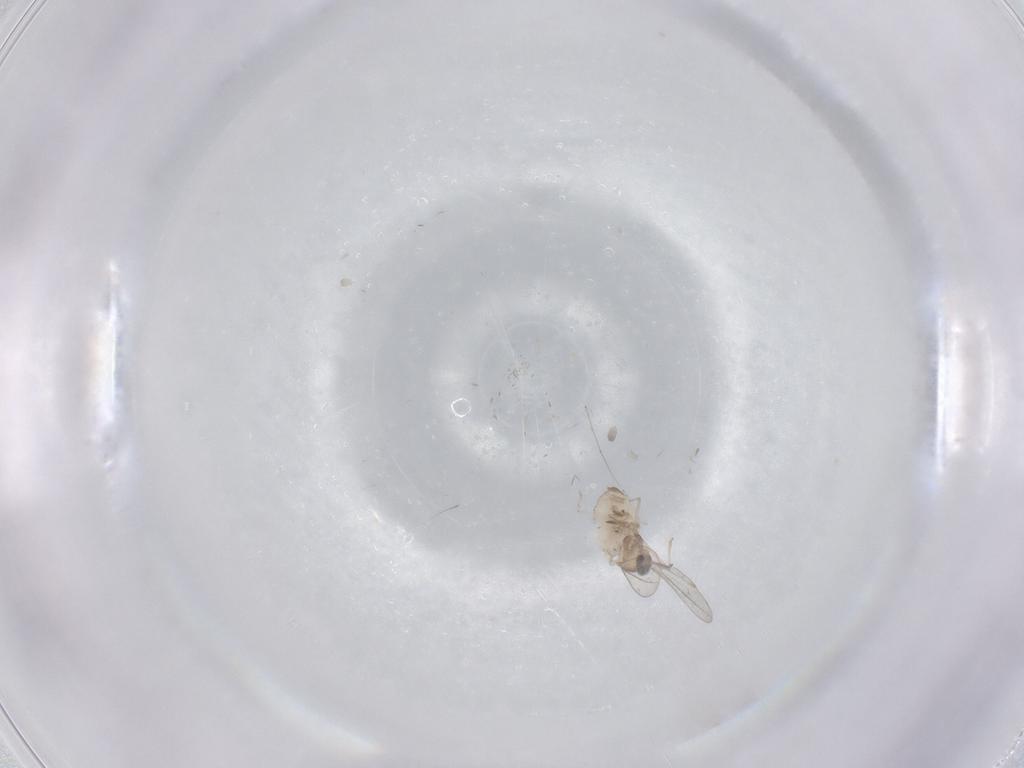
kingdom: Animalia
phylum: Arthropoda
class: Insecta
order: Diptera
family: Cecidomyiidae
